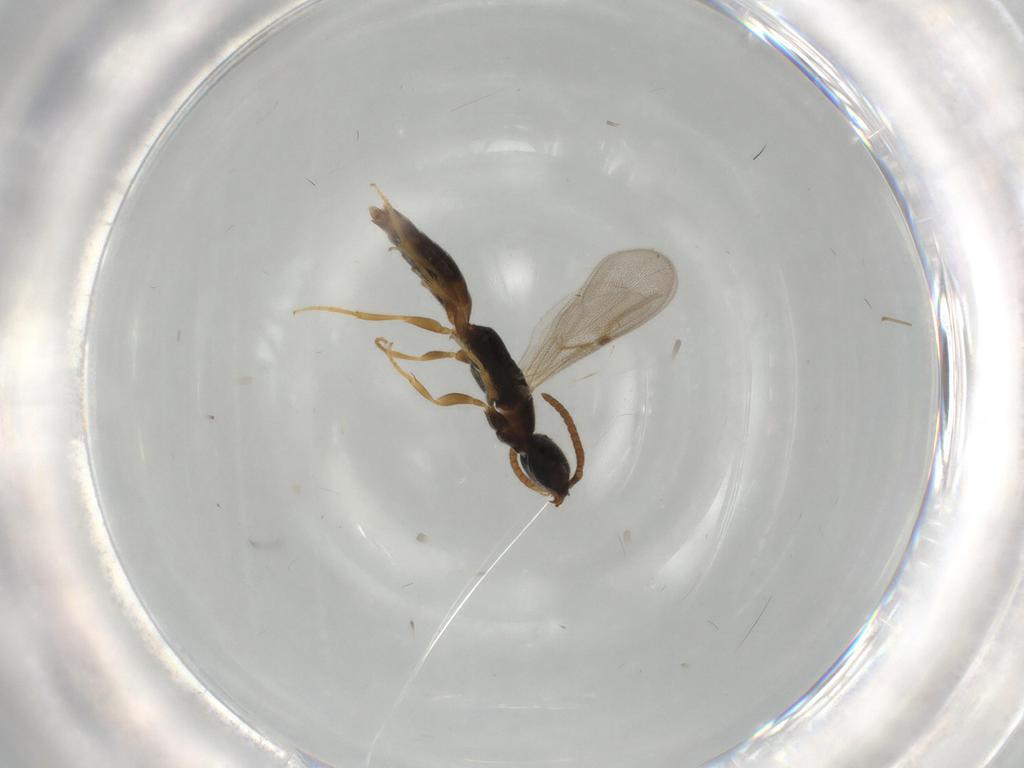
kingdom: Animalia
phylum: Arthropoda
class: Insecta
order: Hymenoptera
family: Bethylidae
